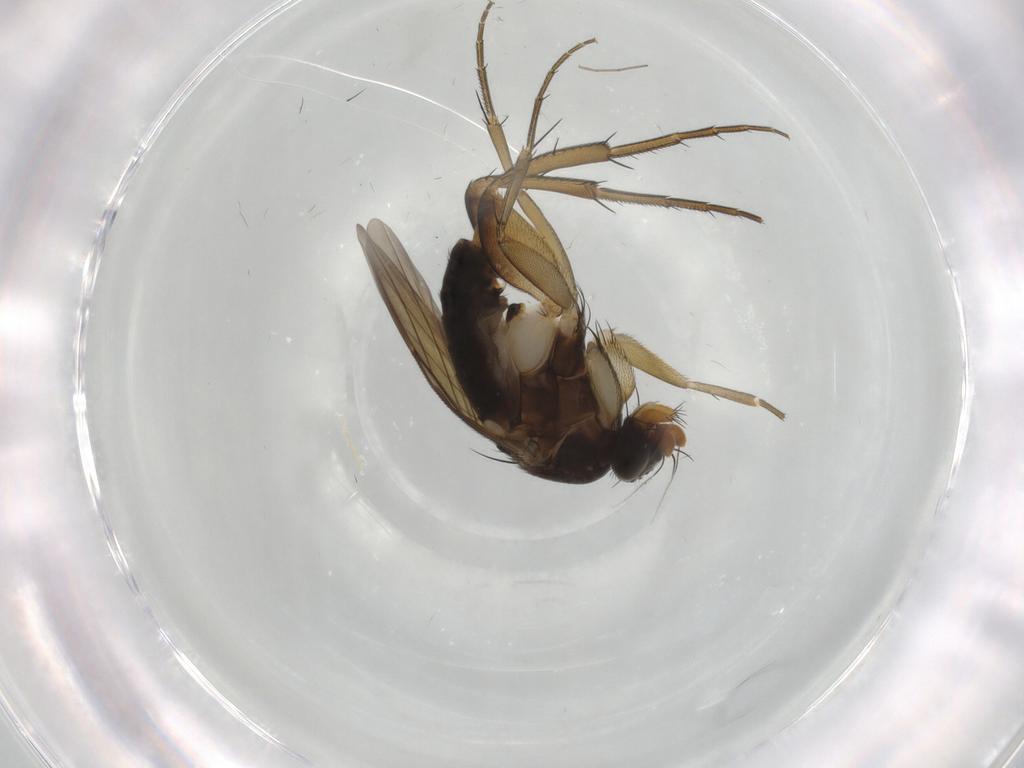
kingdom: Animalia
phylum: Arthropoda
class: Insecta
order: Diptera
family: Phoridae
